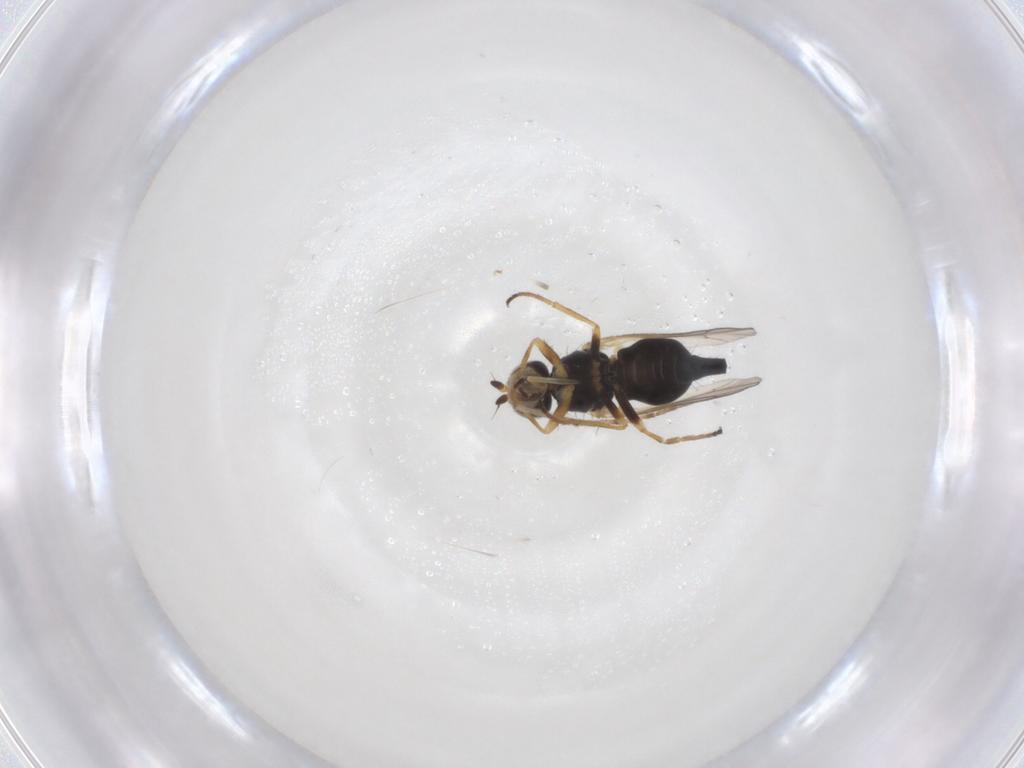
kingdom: Animalia
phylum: Arthropoda
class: Insecta
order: Diptera
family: Tephritidae
